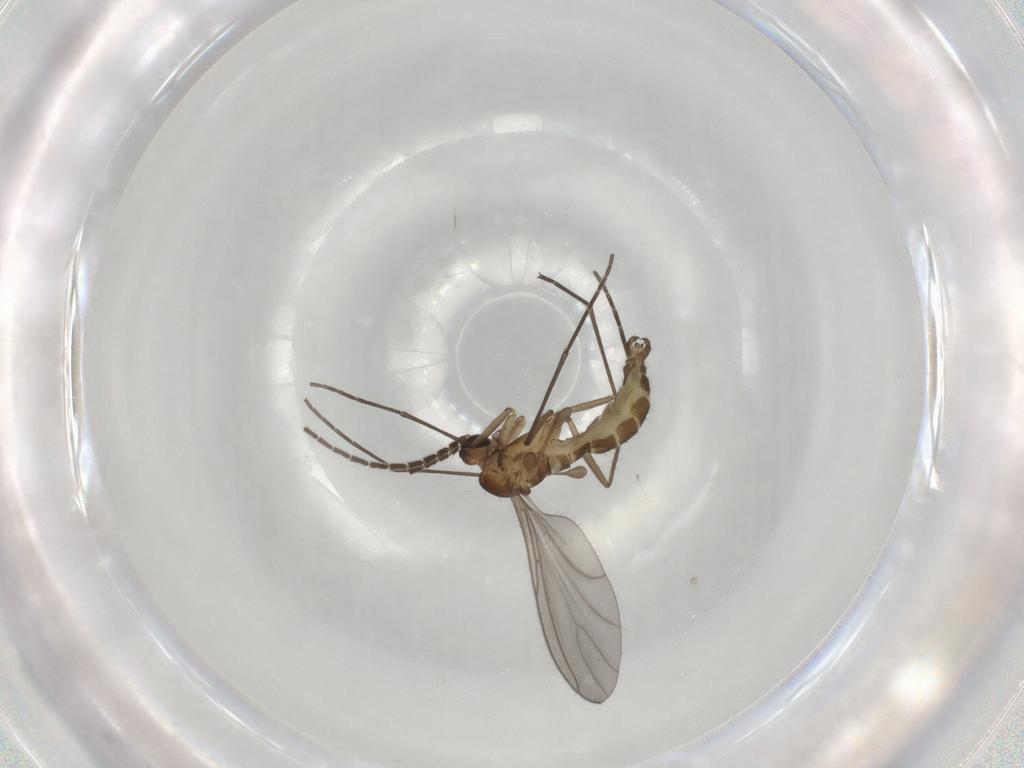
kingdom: Animalia
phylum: Arthropoda
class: Insecta
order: Diptera
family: Sciaridae
